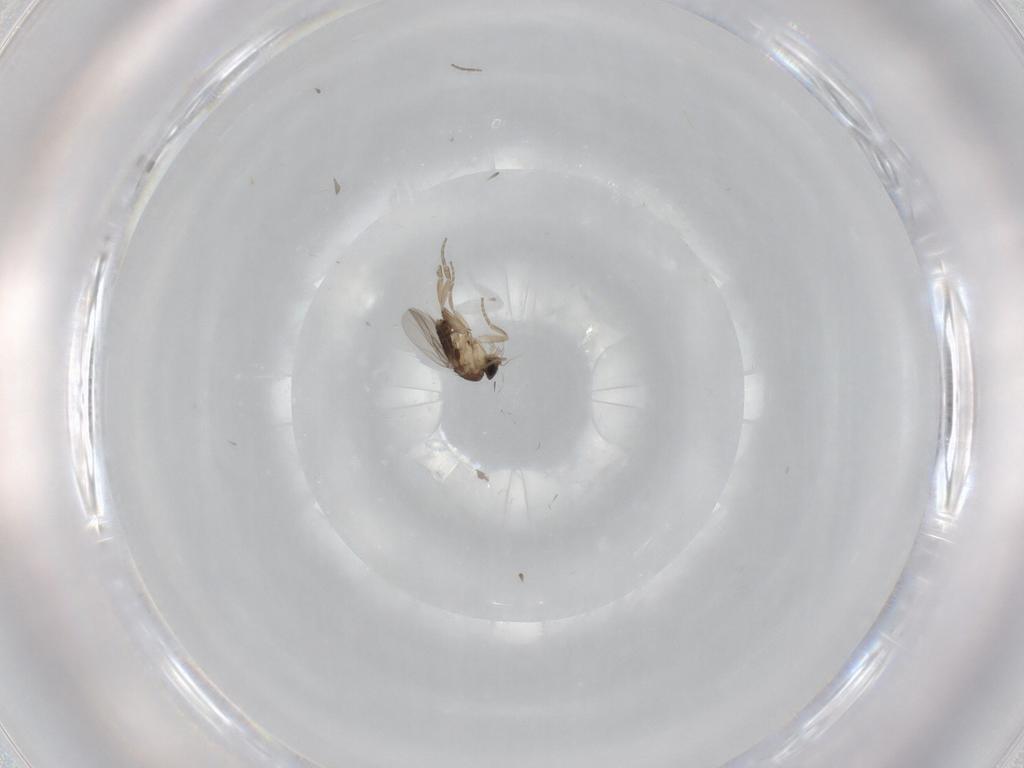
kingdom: Animalia
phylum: Arthropoda
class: Insecta
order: Diptera
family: Phoridae
